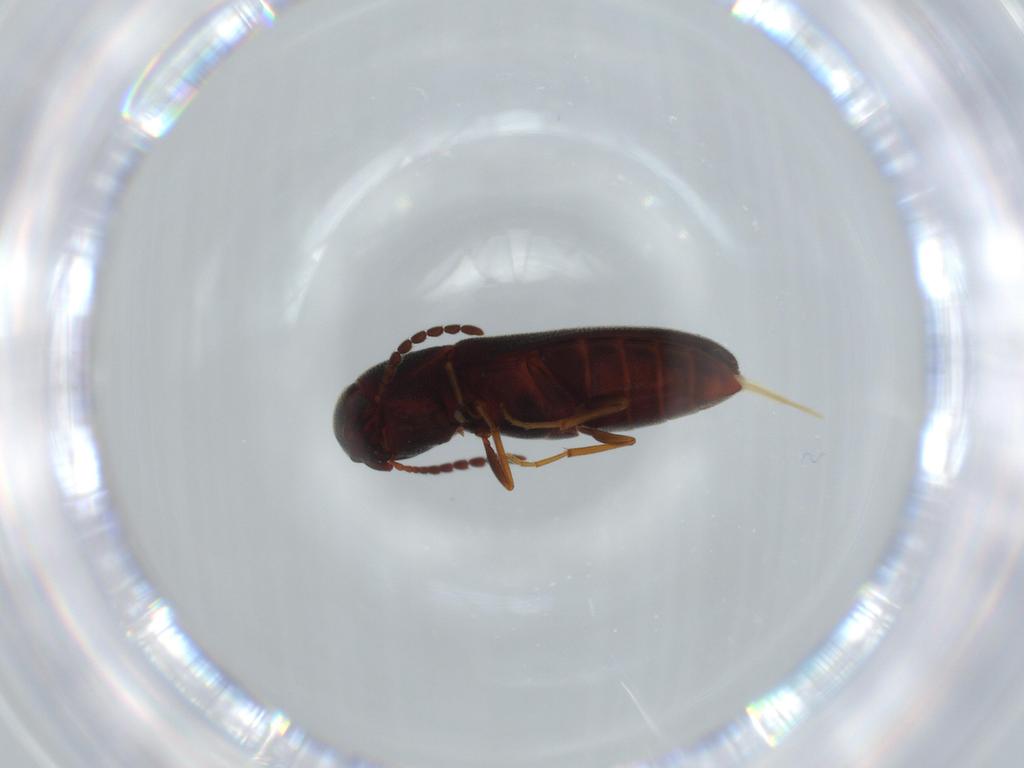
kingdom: Animalia
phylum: Arthropoda
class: Insecta
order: Coleoptera
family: Eucnemidae
